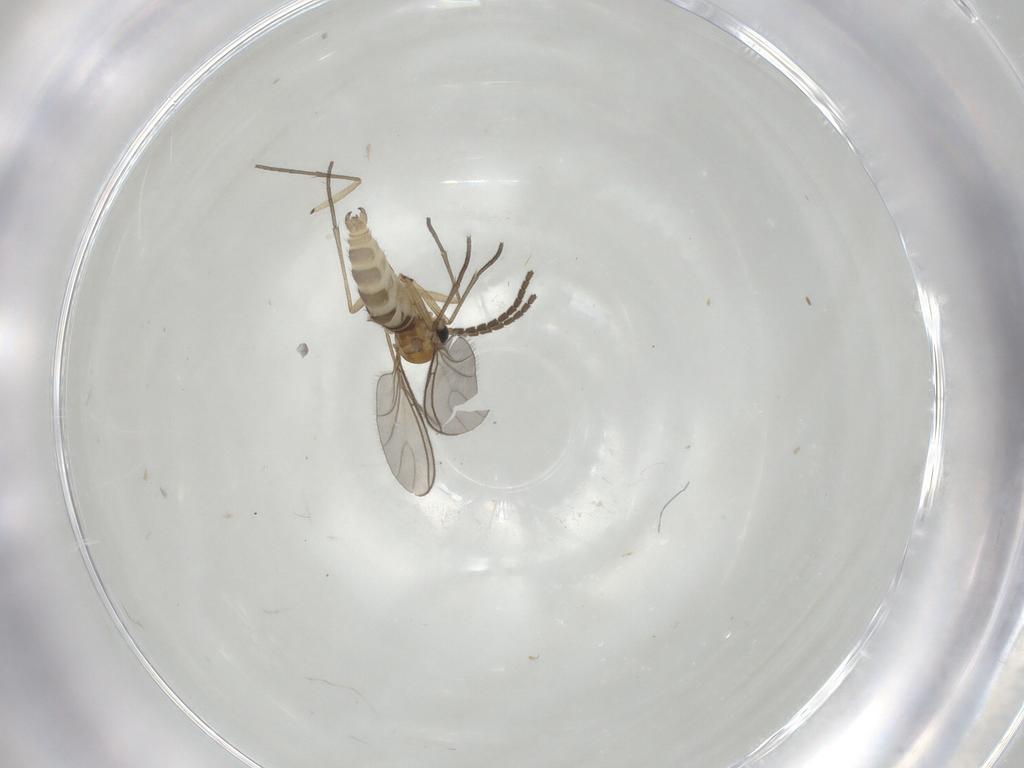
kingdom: Animalia
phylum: Arthropoda
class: Insecta
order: Diptera
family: Sciaridae
